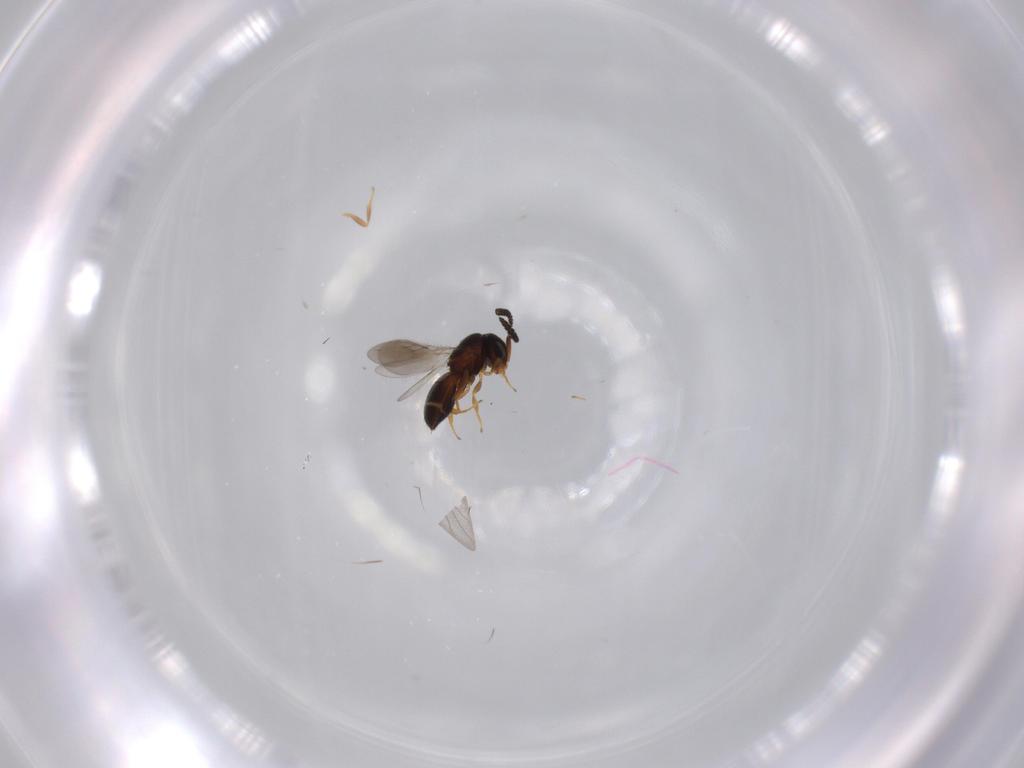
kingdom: Animalia
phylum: Arthropoda
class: Insecta
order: Hymenoptera
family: Scelionidae
